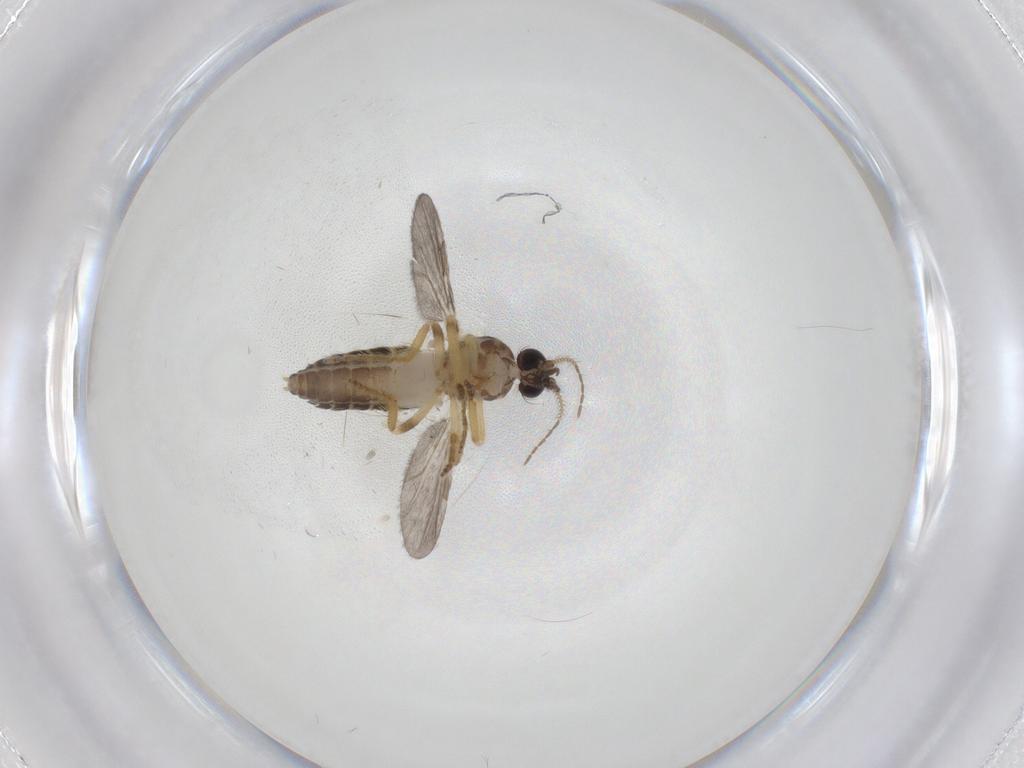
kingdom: Animalia
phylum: Arthropoda
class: Insecta
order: Diptera
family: Ceratopogonidae
